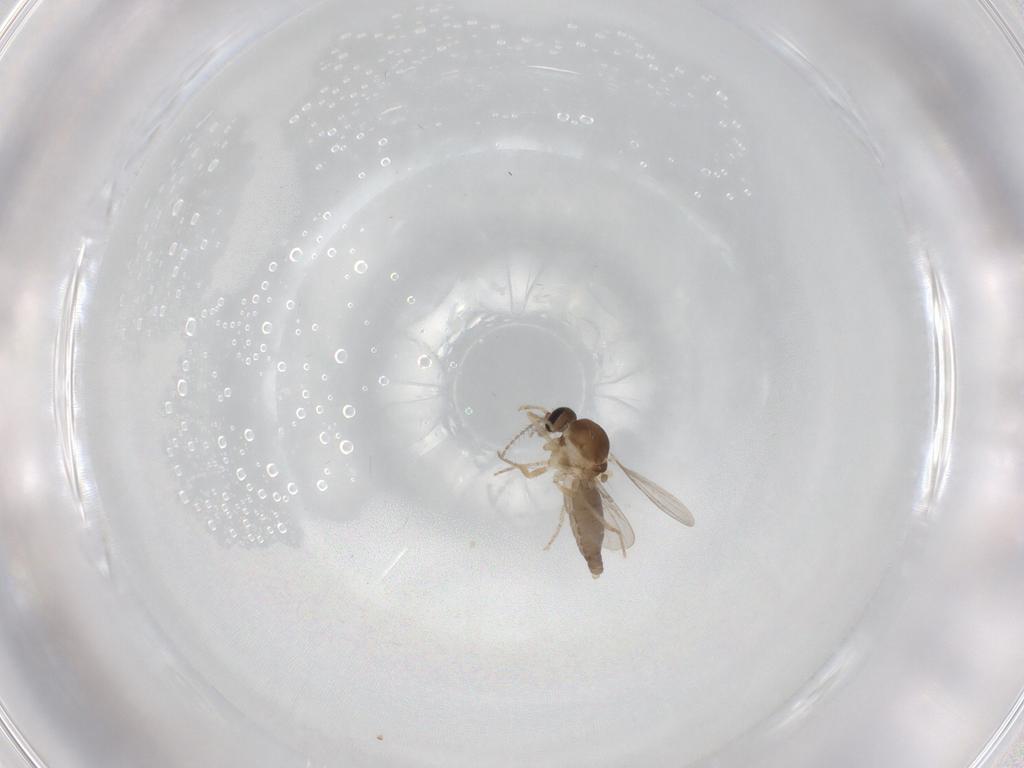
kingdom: Animalia
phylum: Arthropoda
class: Insecta
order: Diptera
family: Ceratopogonidae
